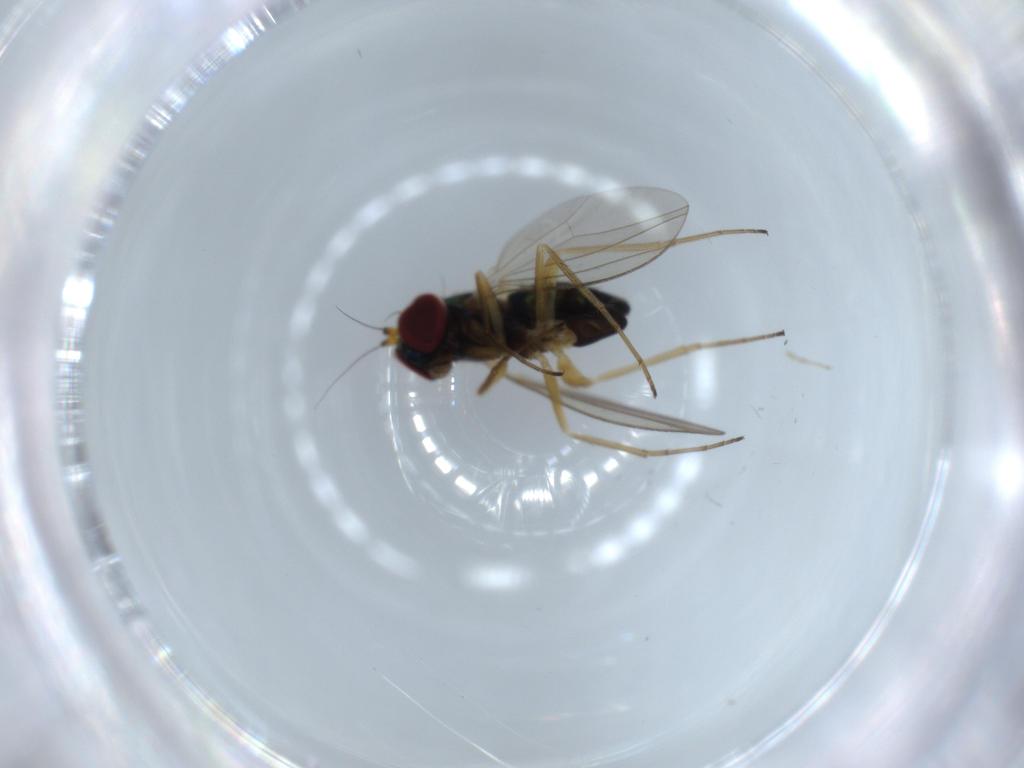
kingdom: Animalia
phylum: Arthropoda
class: Insecta
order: Diptera
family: Dolichopodidae
